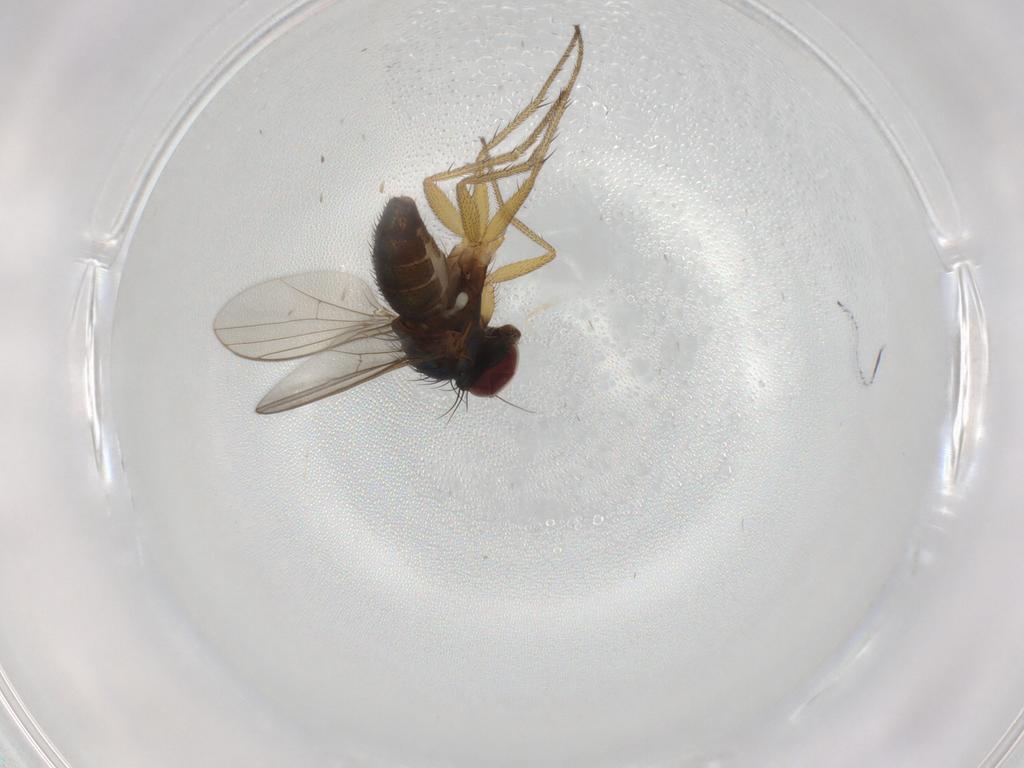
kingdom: Animalia
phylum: Arthropoda
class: Insecta
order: Diptera
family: Dolichopodidae
